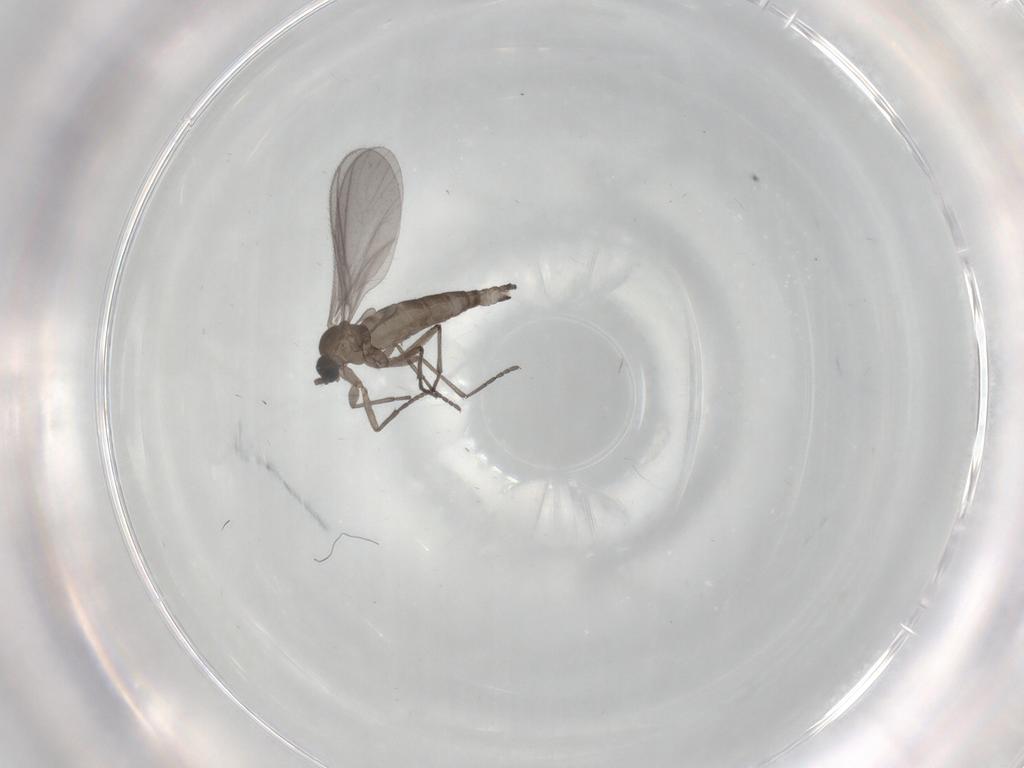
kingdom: Animalia
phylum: Arthropoda
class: Insecta
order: Diptera
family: Sciaridae
